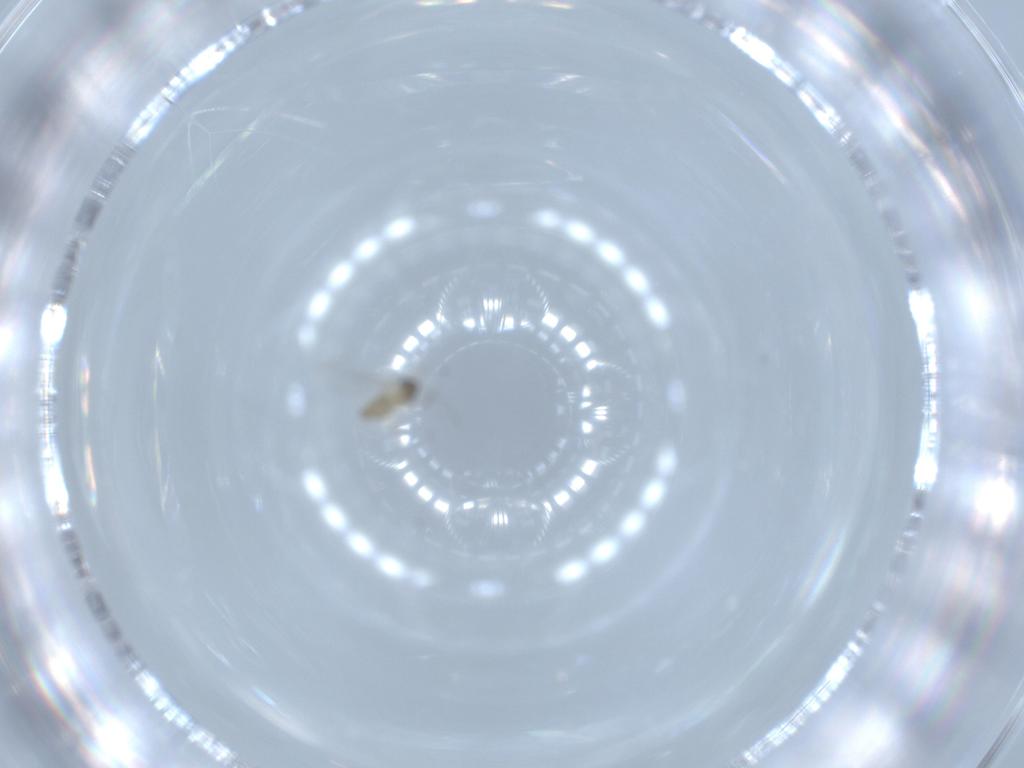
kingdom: Animalia
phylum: Arthropoda
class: Insecta
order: Diptera
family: Cecidomyiidae
